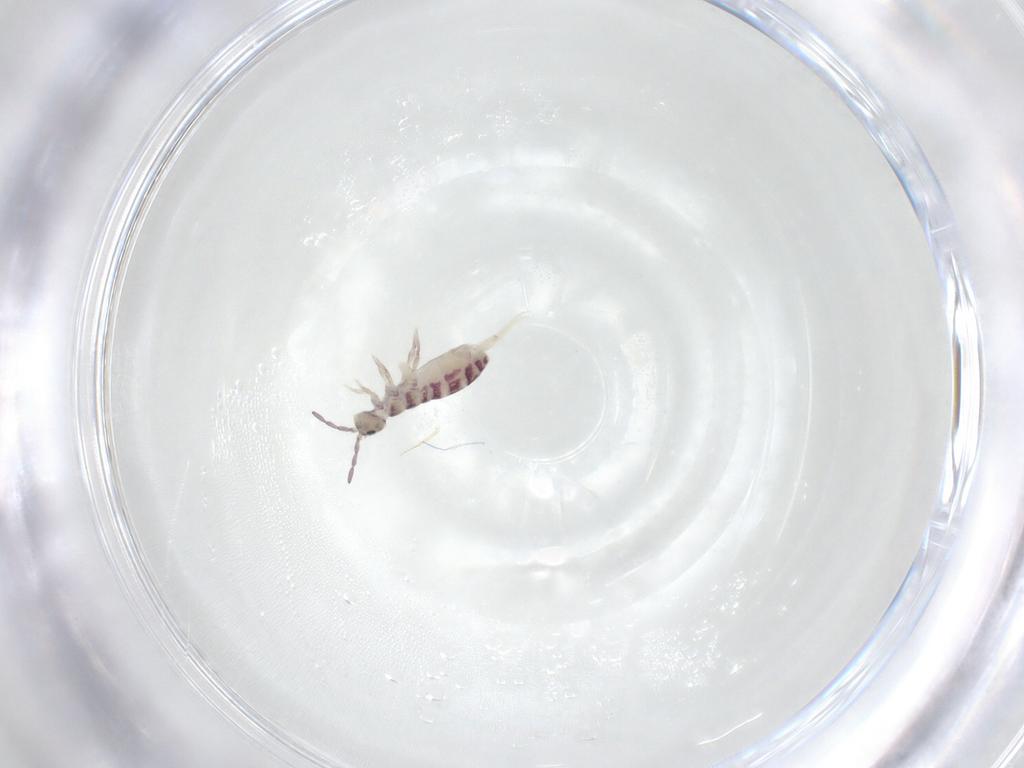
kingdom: Animalia
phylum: Arthropoda
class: Collembola
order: Entomobryomorpha
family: Isotomidae
